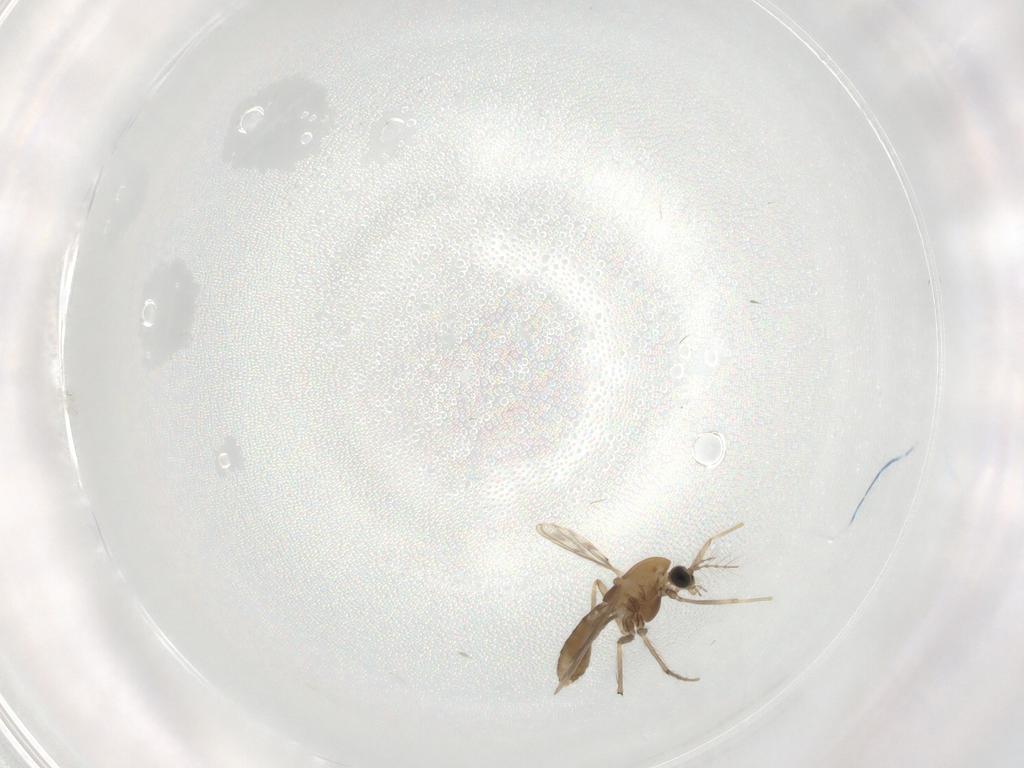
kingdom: Animalia
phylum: Arthropoda
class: Insecta
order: Diptera
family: Chironomidae
